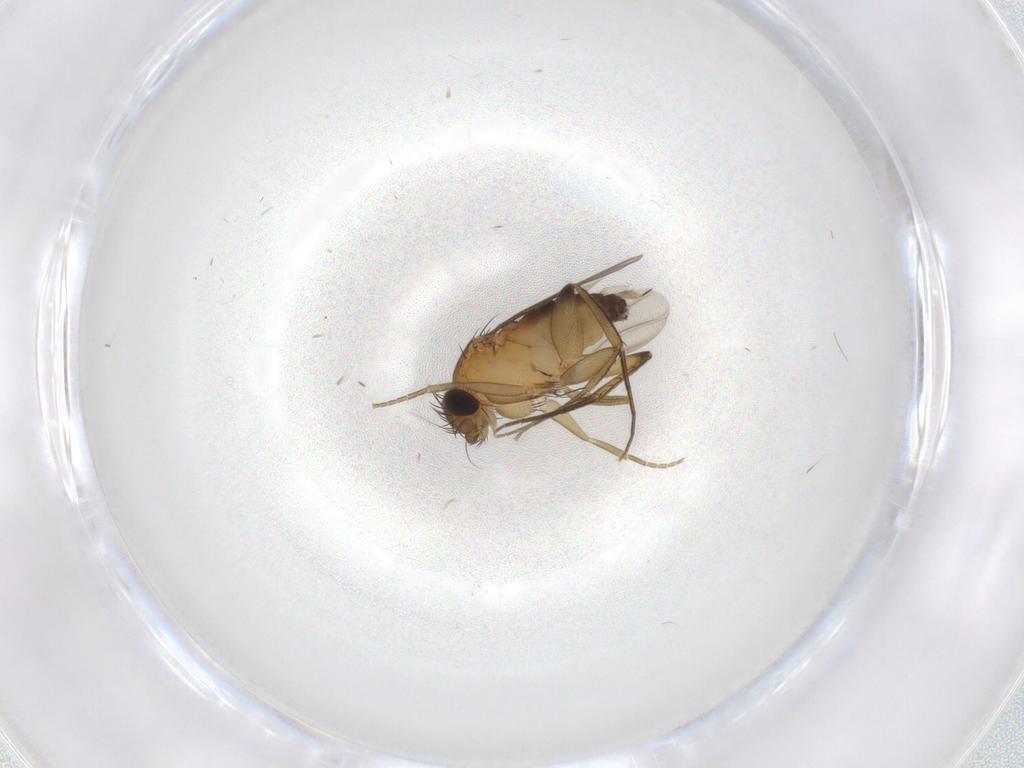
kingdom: Animalia
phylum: Arthropoda
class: Insecta
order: Diptera
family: Phoridae
